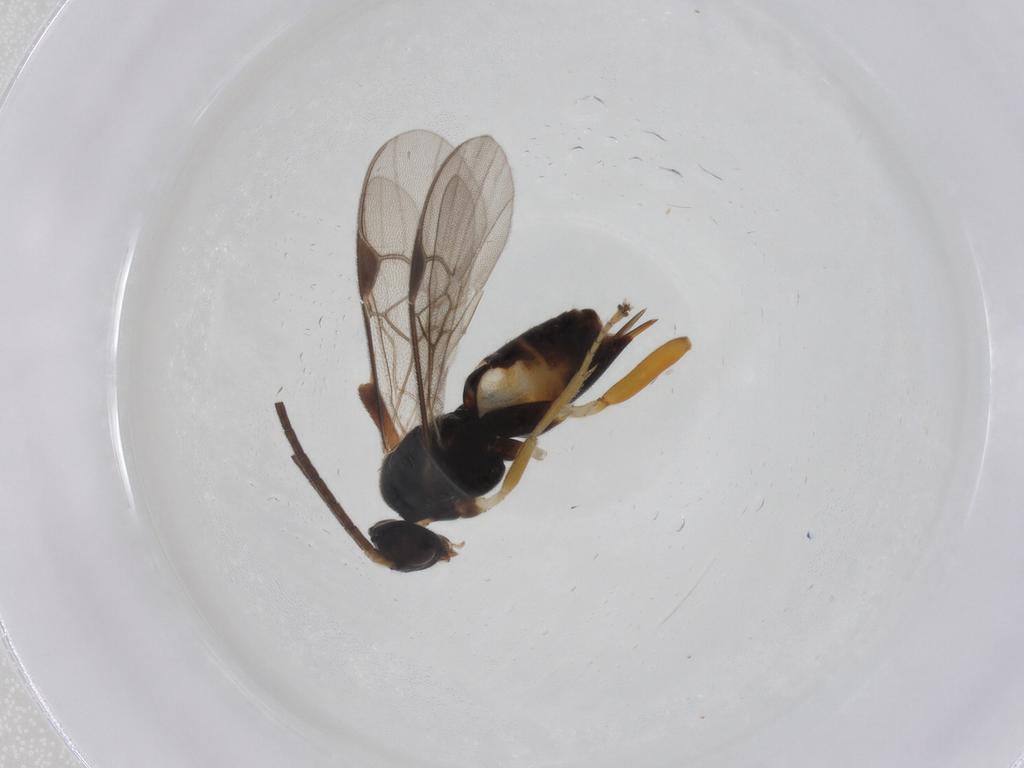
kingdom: Animalia
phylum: Arthropoda
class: Insecta
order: Hymenoptera
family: Braconidae
